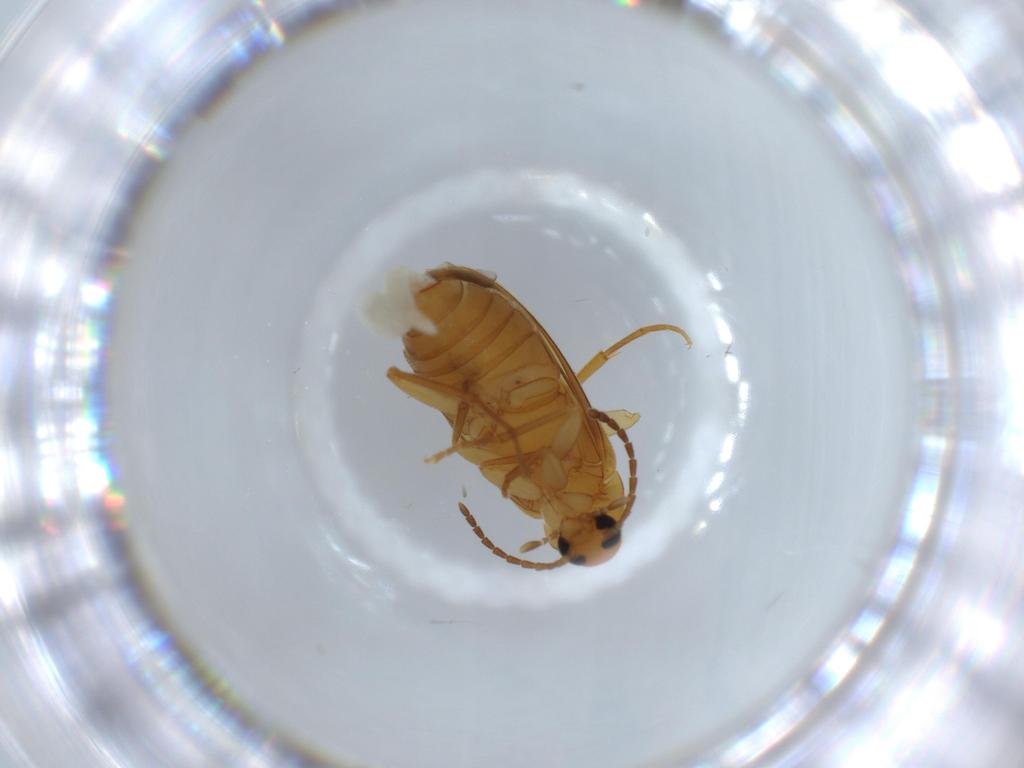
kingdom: Animalia
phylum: Arthropoda
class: Insecta
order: Coleoptera
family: Scraptiidae
